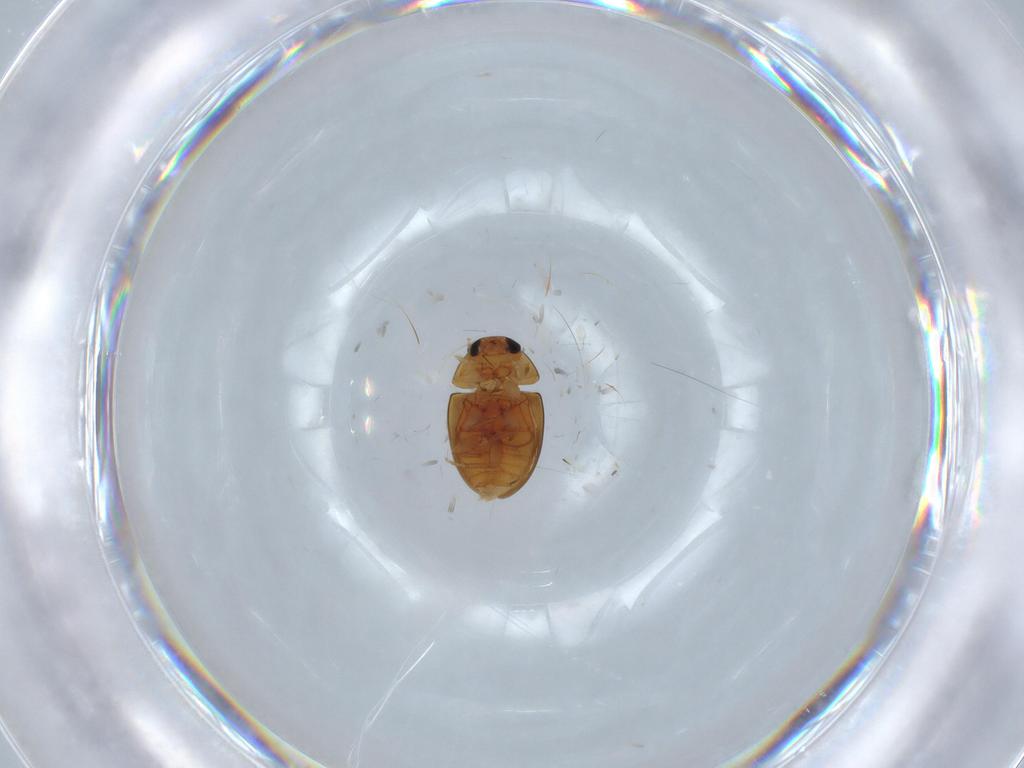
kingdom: Animalia
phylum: Arthropoda
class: Insecta
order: Coleoptera
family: Phalacridae
